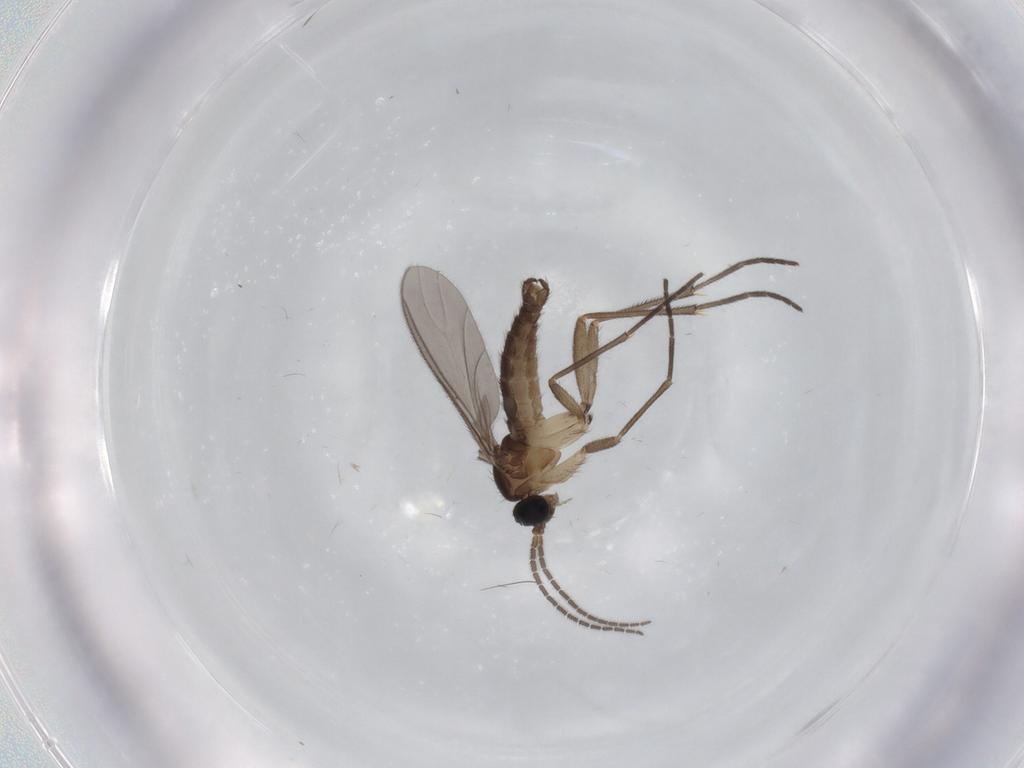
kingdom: Animalia
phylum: Arthropoda
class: Insecta
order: Diptera
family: Sciaridae
